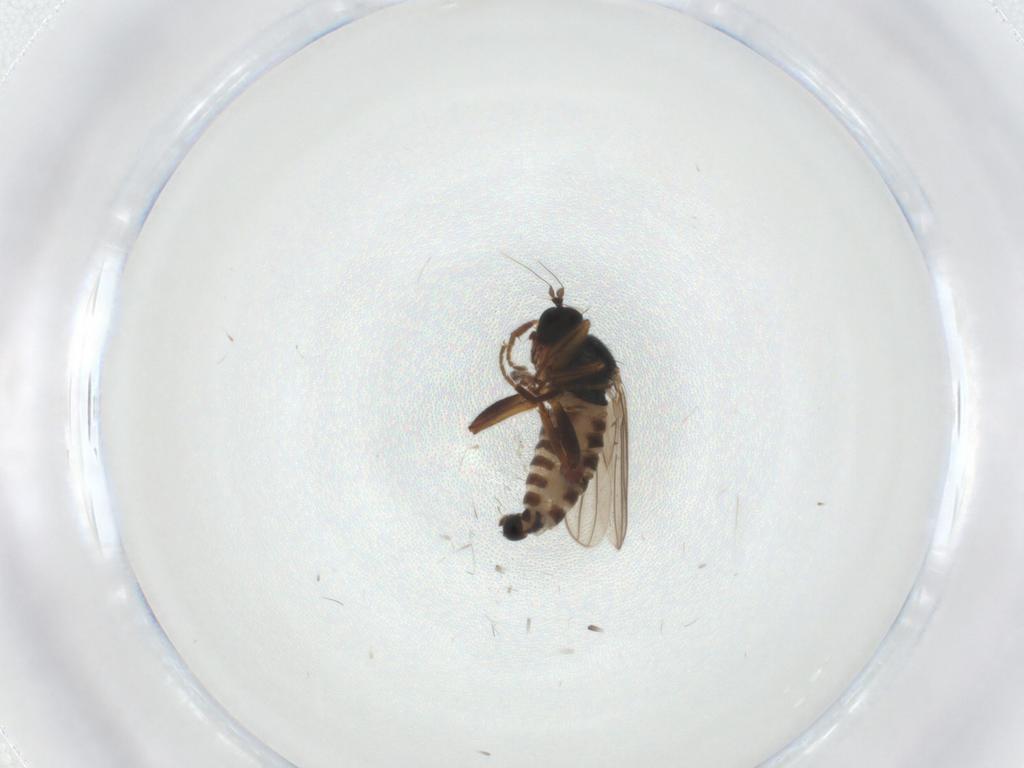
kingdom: Animalia
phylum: Arthropoda
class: Insecta
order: Diptera
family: Hybotidae
